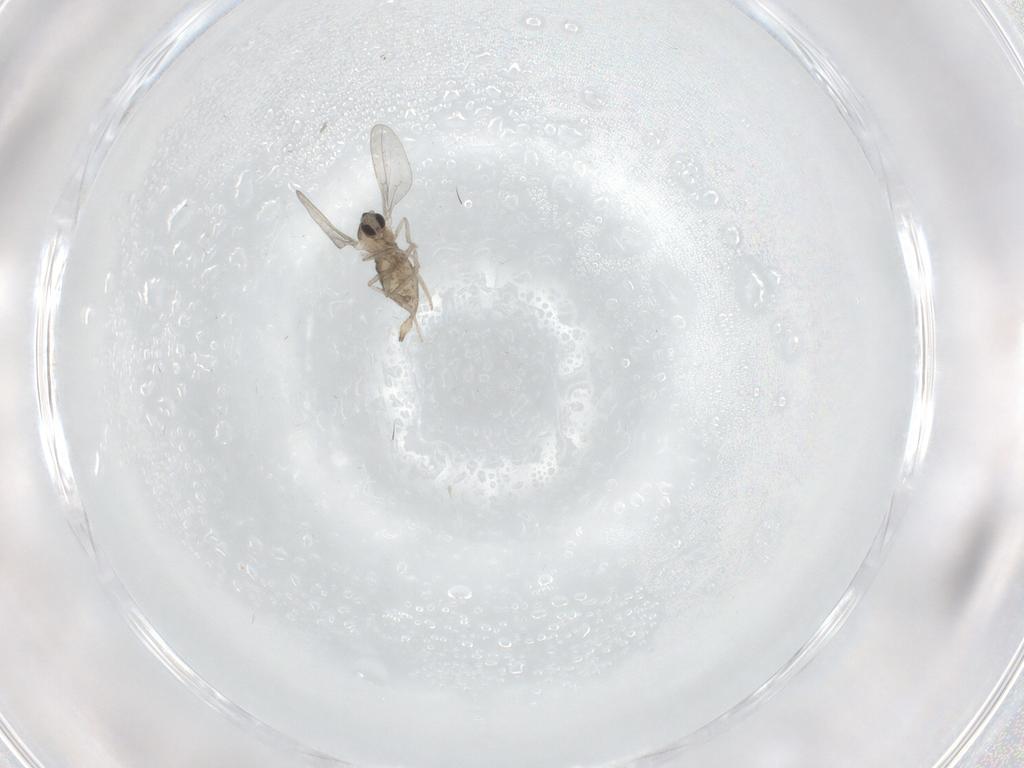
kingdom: Animalia
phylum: Arthropoda
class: Insecta
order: Diptera
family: Cecidomyiidae
